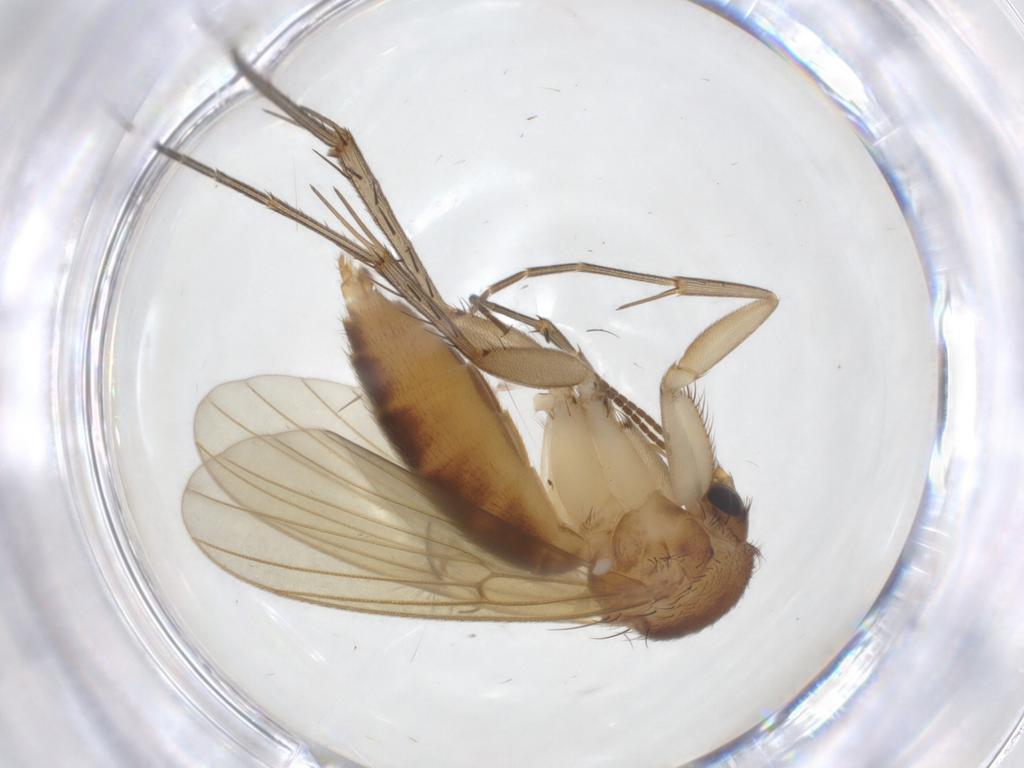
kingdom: Animalia
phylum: Arthropoda
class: Insecta
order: Diptera
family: Mycetophilidae
